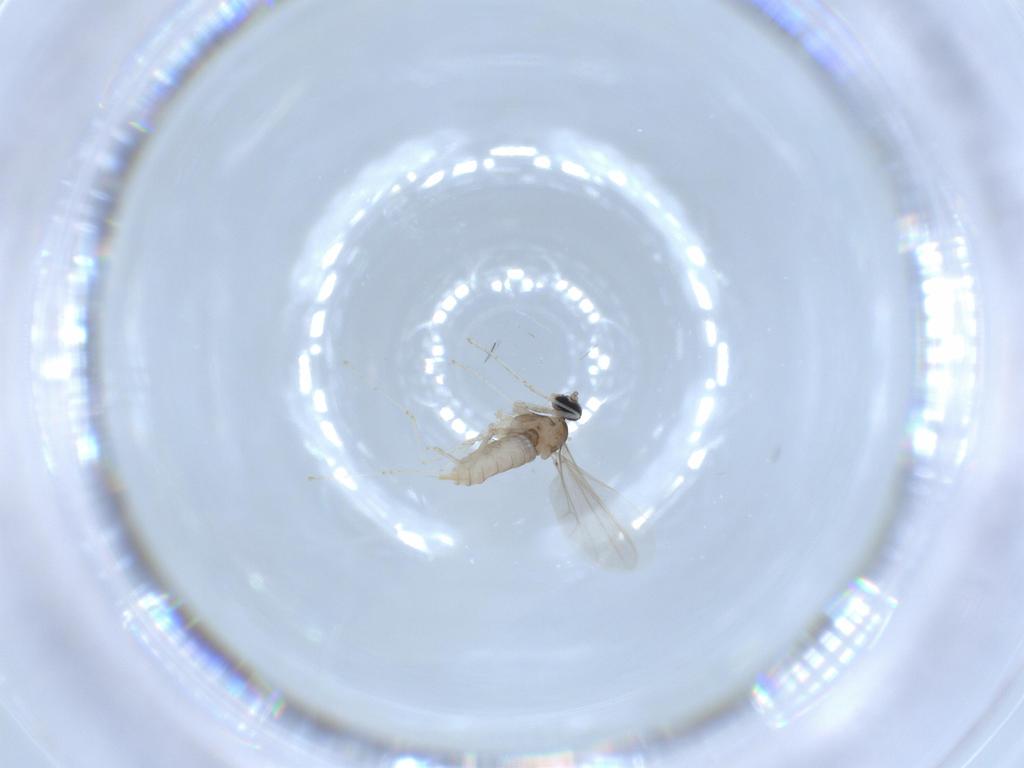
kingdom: Animalia
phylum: Arthropoda
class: Insecta
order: Diptera
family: Cecidomyiidae
